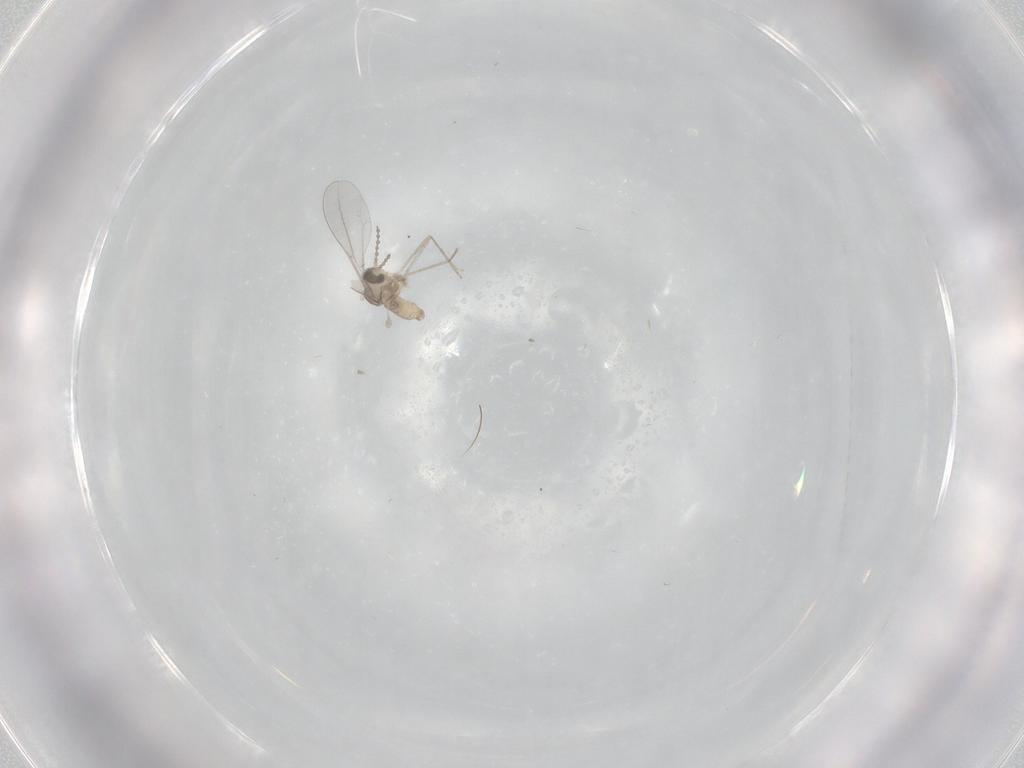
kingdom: Animalia
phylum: Arthropoda
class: Insecta
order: Diptera
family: Cecidomyiidae
